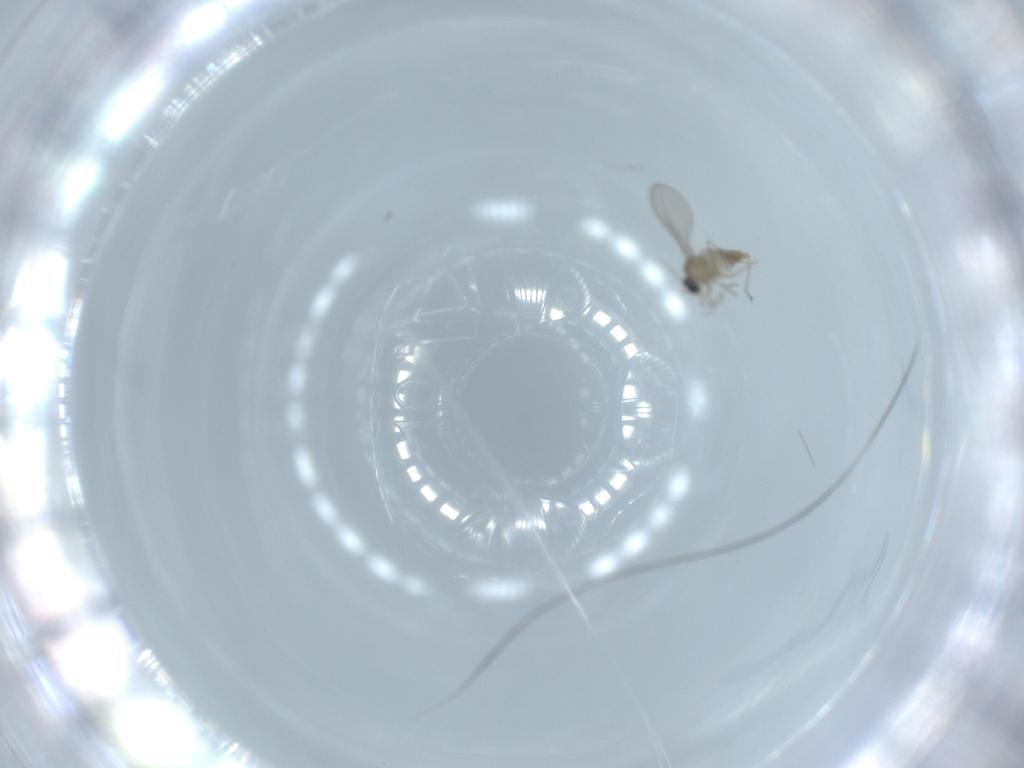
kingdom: Animalia
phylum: Arthropoda
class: Insecta
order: Diptera
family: Cecidomyiidae
